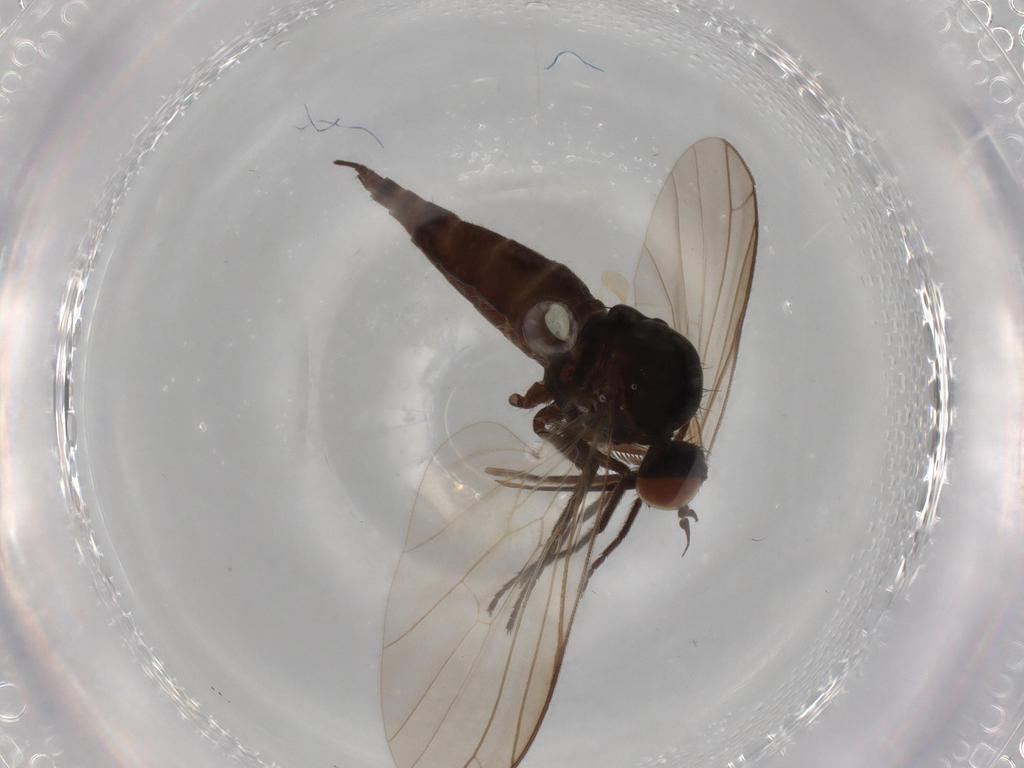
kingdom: Animalia
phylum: Arthropoda
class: Insecta
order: Diptera
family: Empididae
